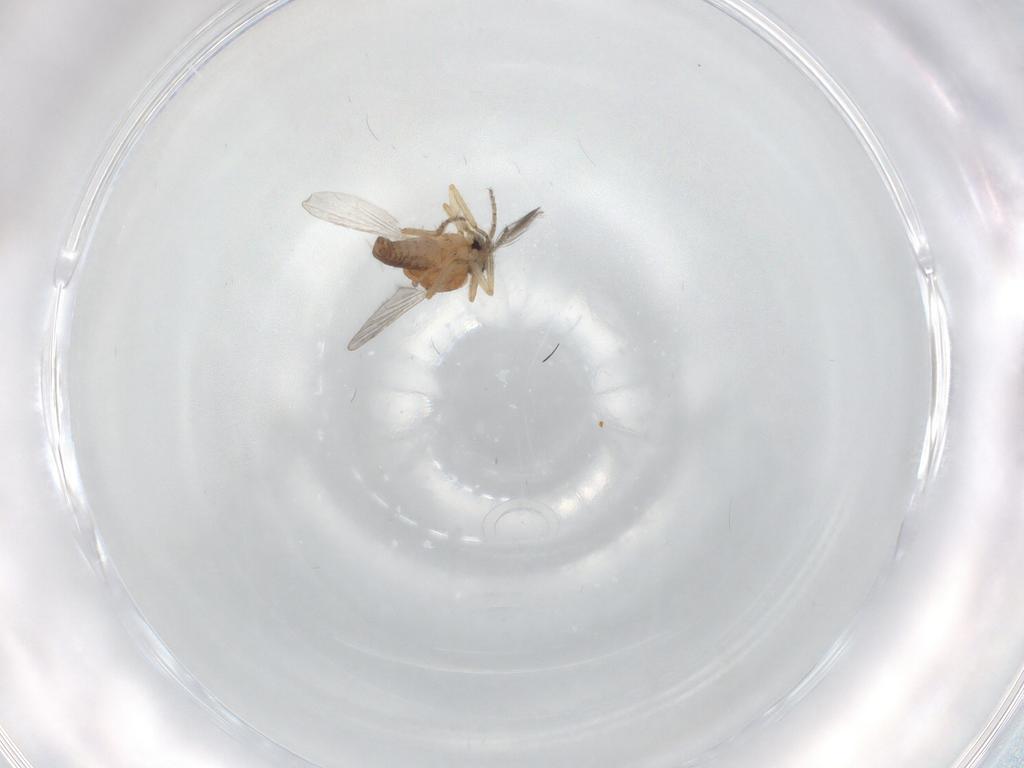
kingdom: Animalia
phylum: Arthropoda
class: Insecta
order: Diptera
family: Ceratopogonidae
